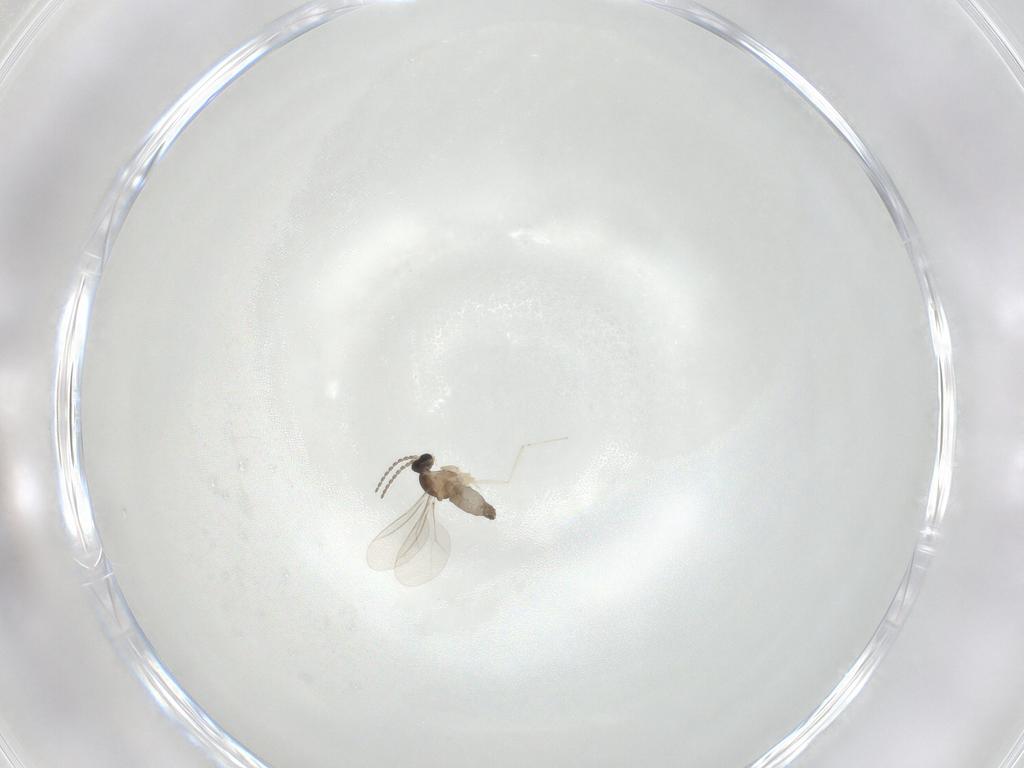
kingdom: Animalia
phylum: Arthropoda
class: Insecta
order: Diptera
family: Cecidomyiidae
